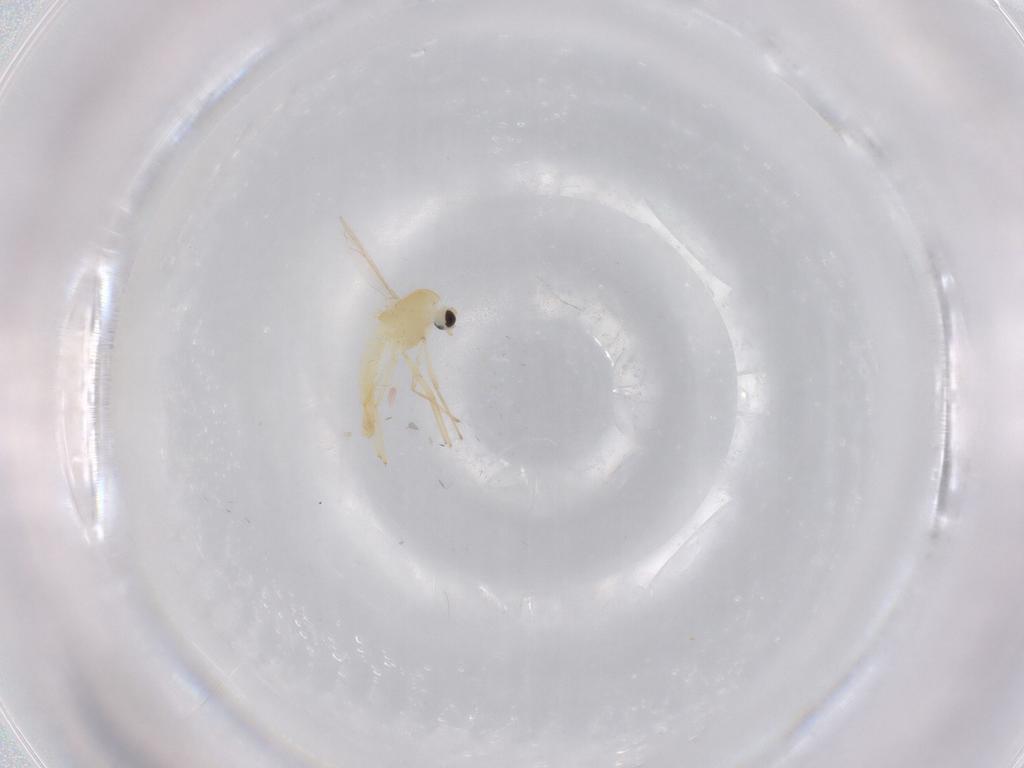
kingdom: Animalia
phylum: Arthropoda
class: Insecta
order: Diptera
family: Chironomidae
